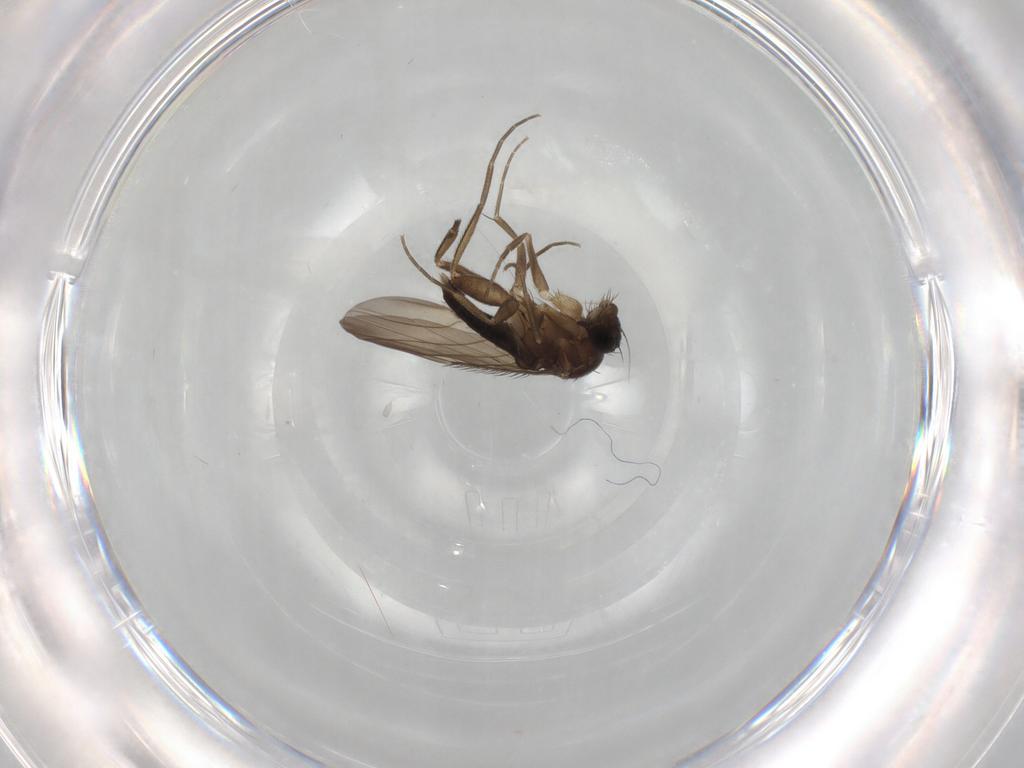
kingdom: Animalia
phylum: Arthropoda
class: Insecta
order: Diptera
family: Phoridae
